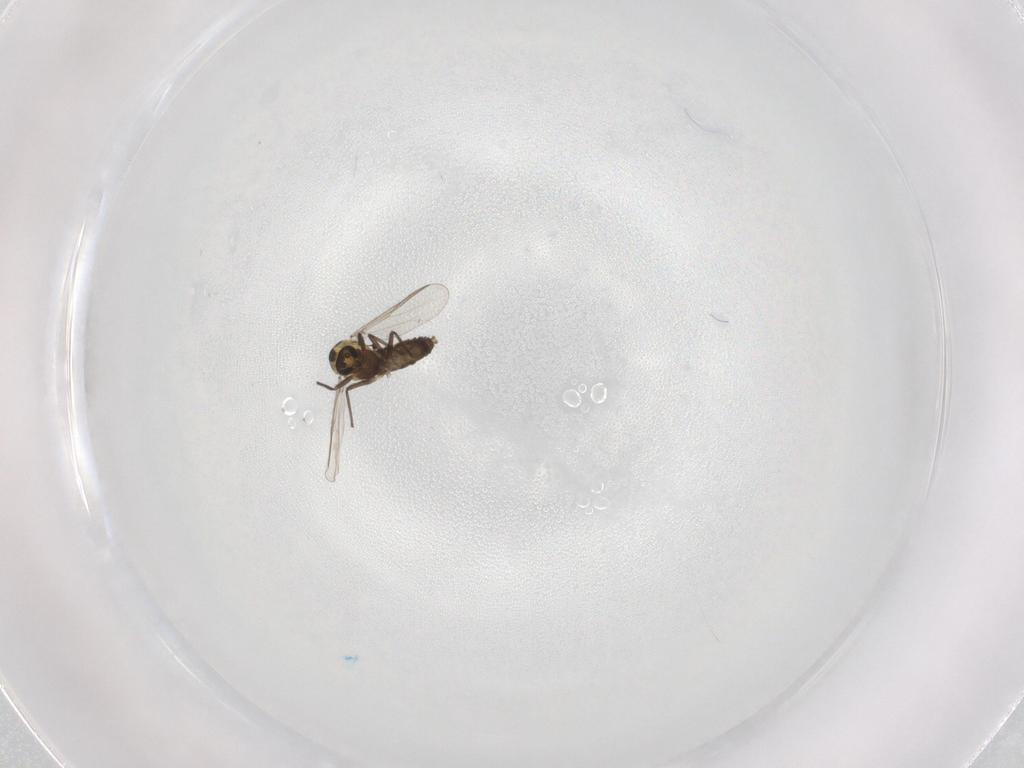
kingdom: Animalia
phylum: Arthropoda
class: Insecta
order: Diptera
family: Chironomidae
